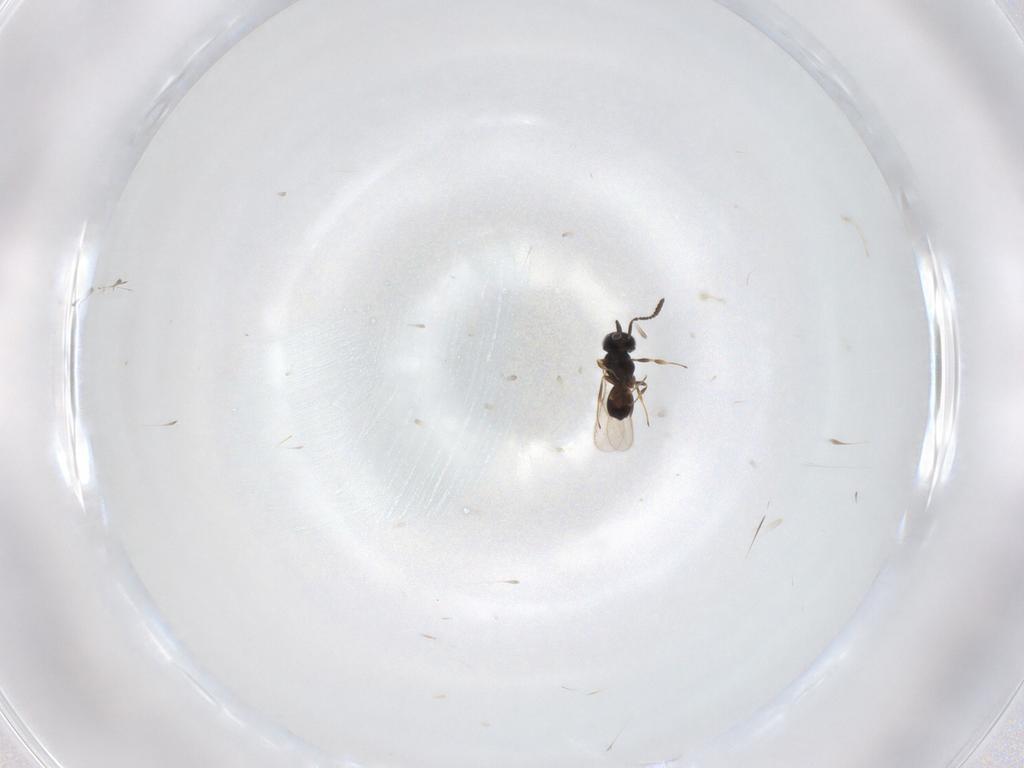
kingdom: Animalia
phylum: Arthropoda
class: Insecta
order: Hymenoptera
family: Scelionidae
